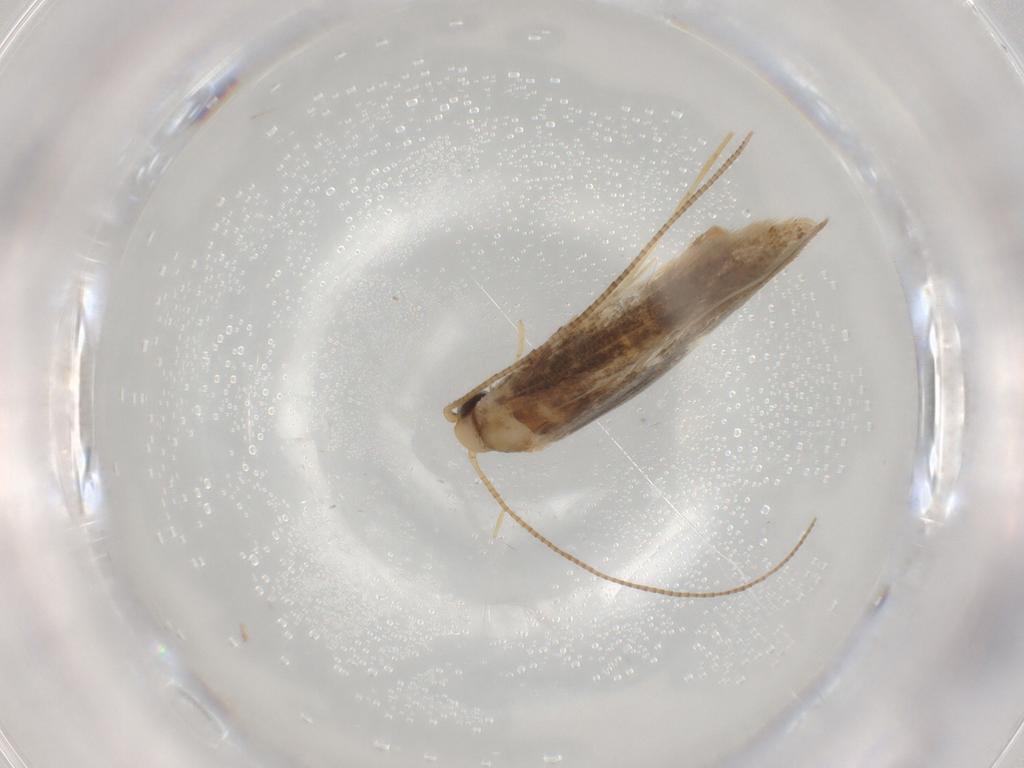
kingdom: Animalia
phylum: Arthropoda
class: Insecta
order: Lepidoptera
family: Gracillariidae
